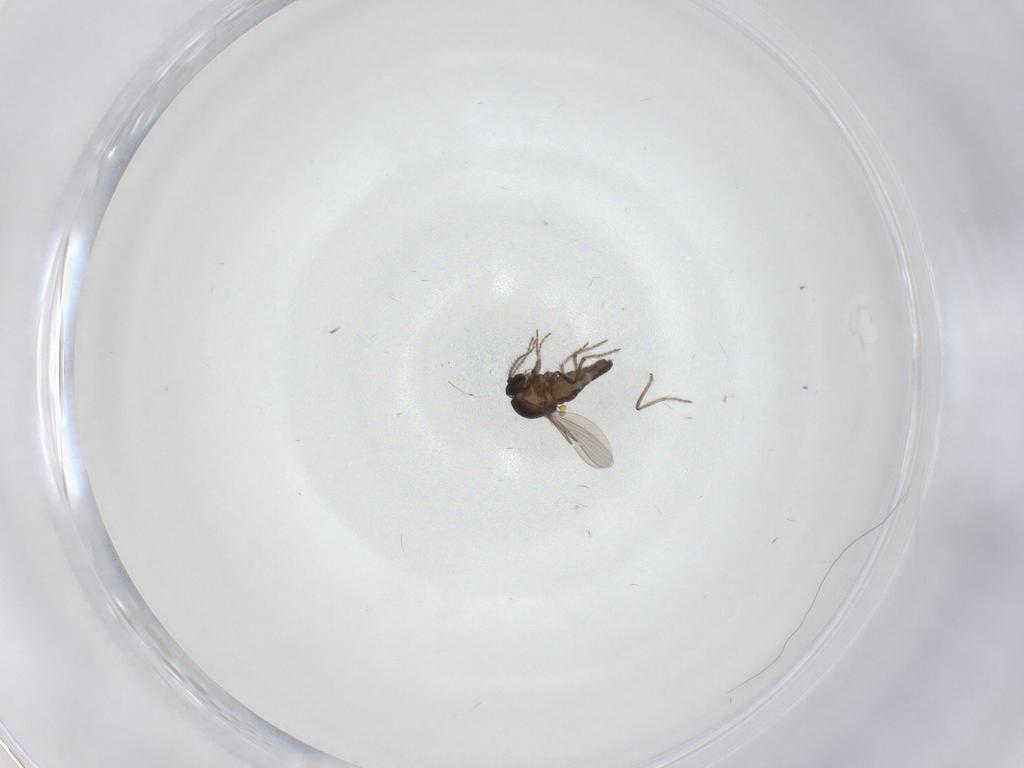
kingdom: Animalia
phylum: Arthropoda
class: Insecta
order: Diptera
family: Ceratopogonidae
